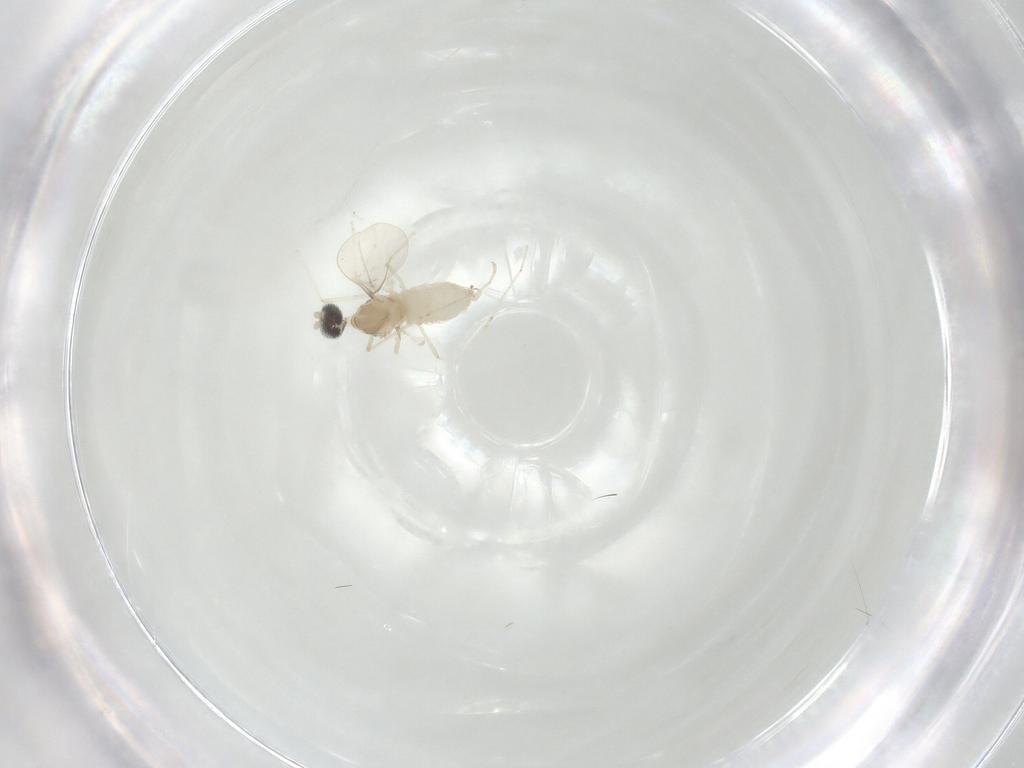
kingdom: Animalia
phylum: Arthropoda
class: Insecta
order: Diptera
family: Cecidomyiidae
